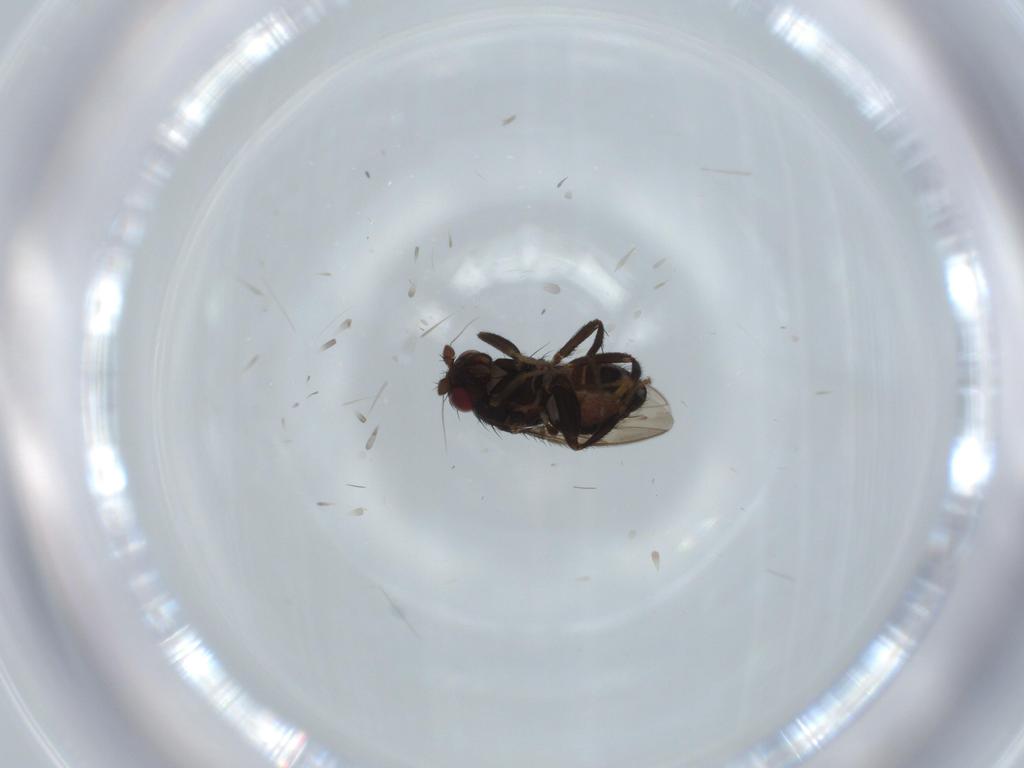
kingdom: Animalia
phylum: Arthropoda
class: Insecta
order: Diptera
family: Sphaeroceridae
